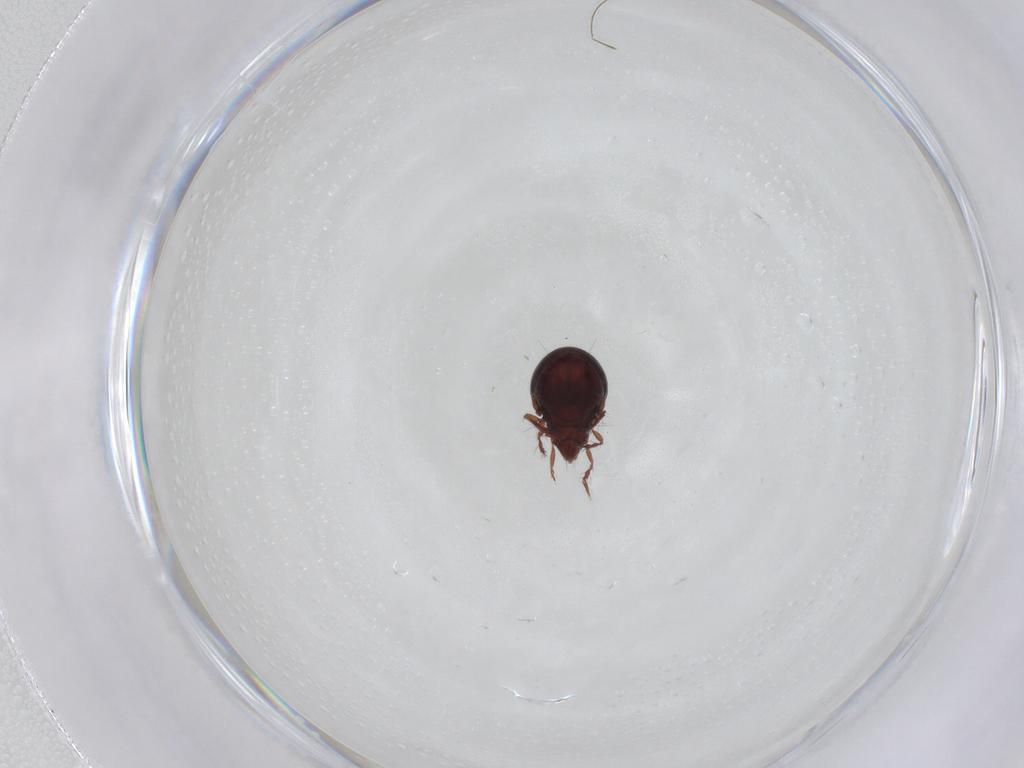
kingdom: Animalia
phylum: Arthropoda
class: Arachnida
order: Sarcoptiformes
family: Ceratoppiidae
